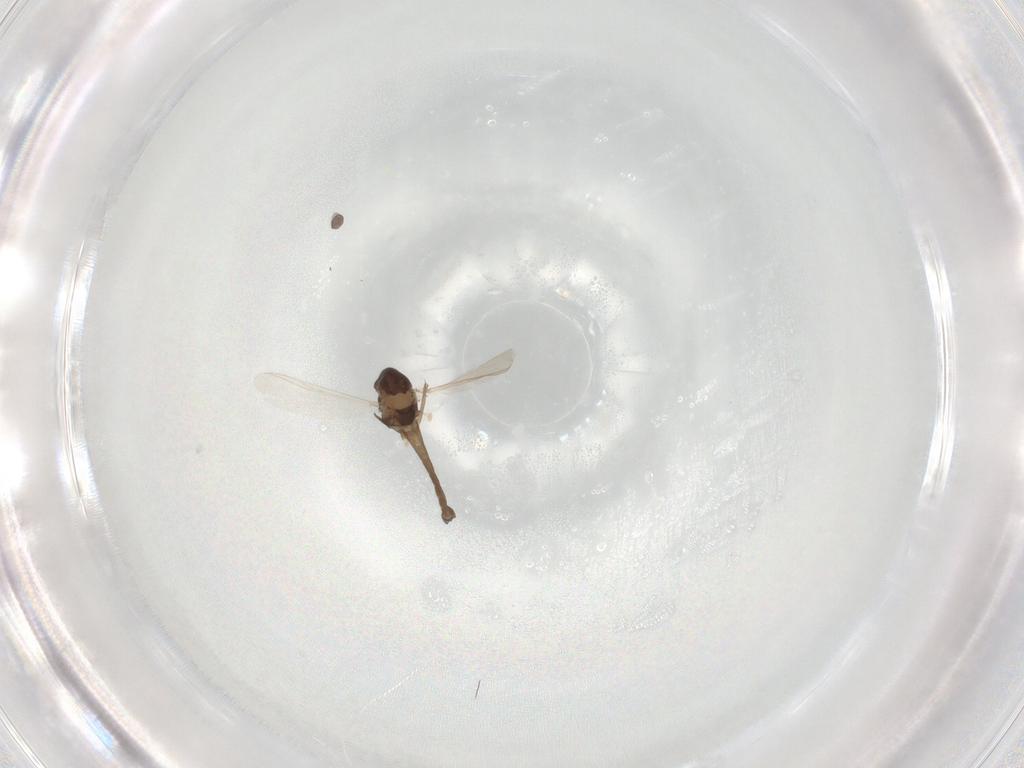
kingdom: Animalia
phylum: Arthropoda
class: Insecta
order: Diptera
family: Chironomidae
